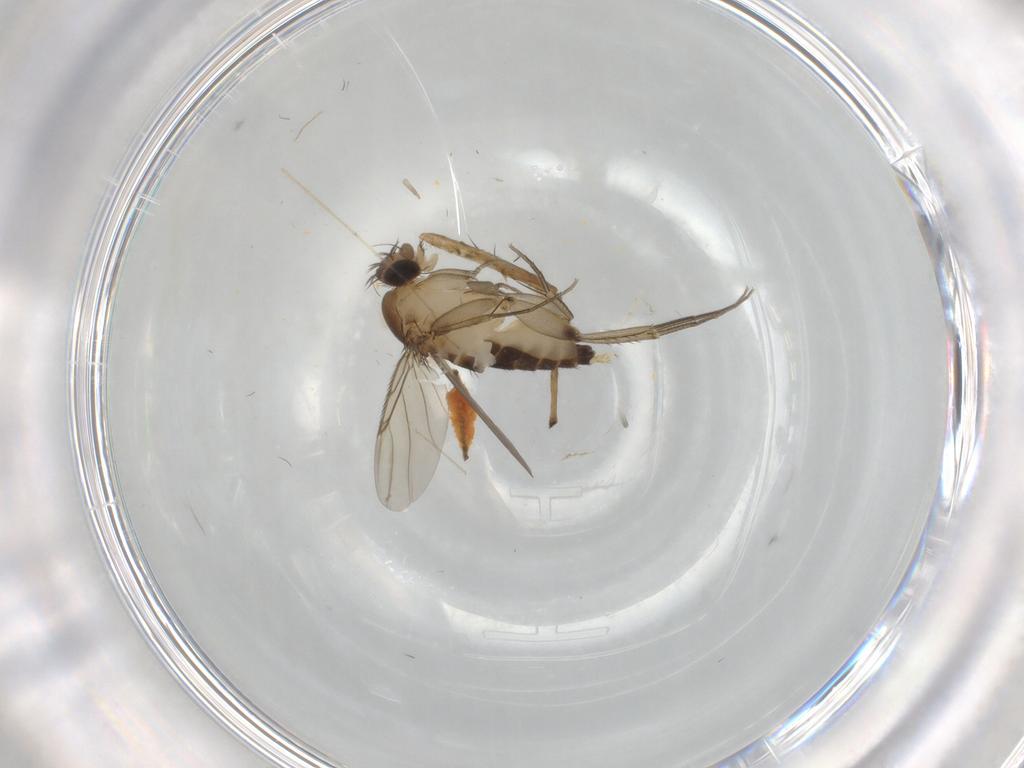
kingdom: Animalia
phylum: Arthropoda
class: Insecta
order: Diptera
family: Chironomidae
